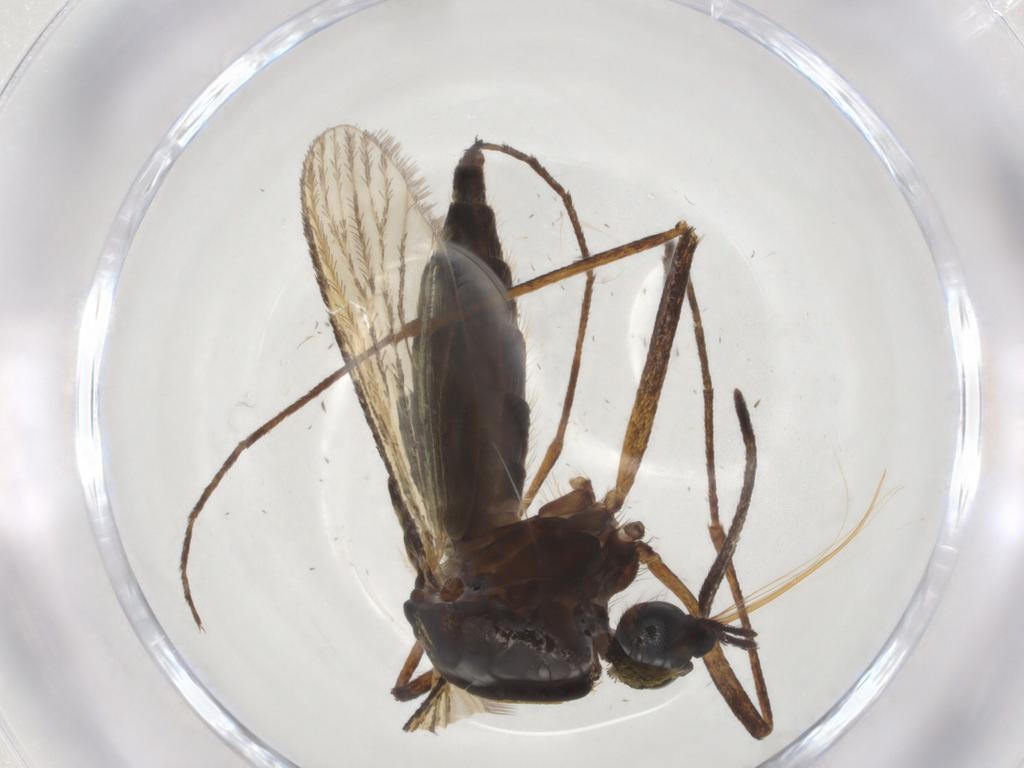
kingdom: Animalia
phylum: Arthropoda
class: Insecta
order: Diptera
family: Culicidae
